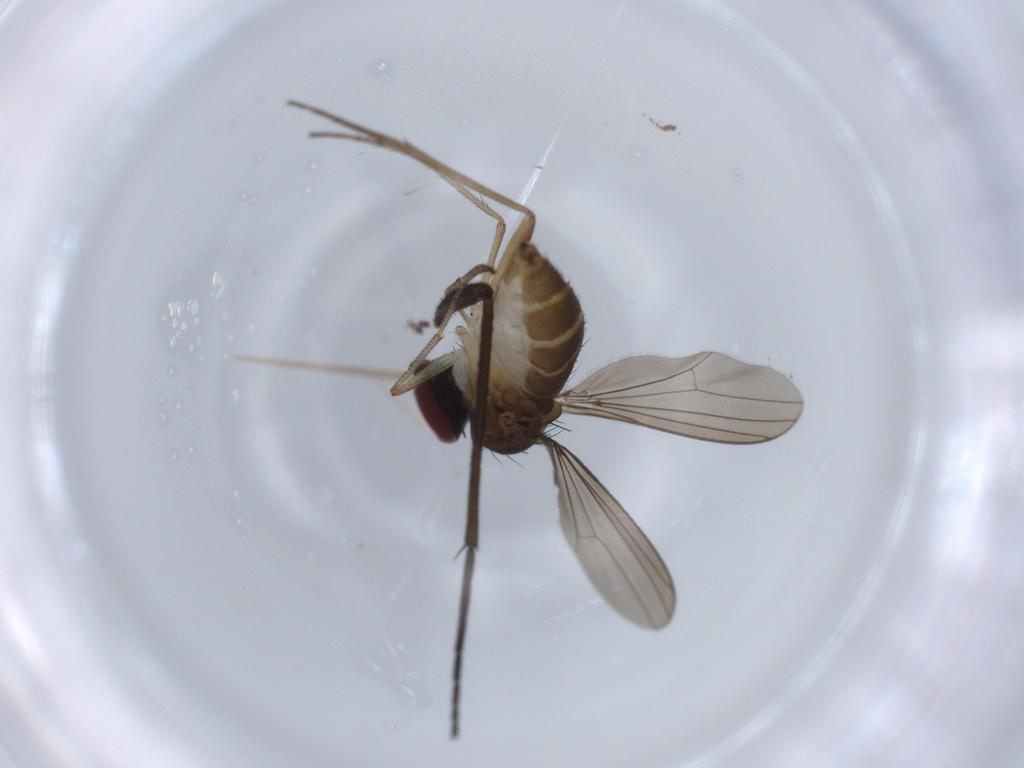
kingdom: Animalia
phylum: Arthropoda
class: Insecta
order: Diptera
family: Dolichopodidae
